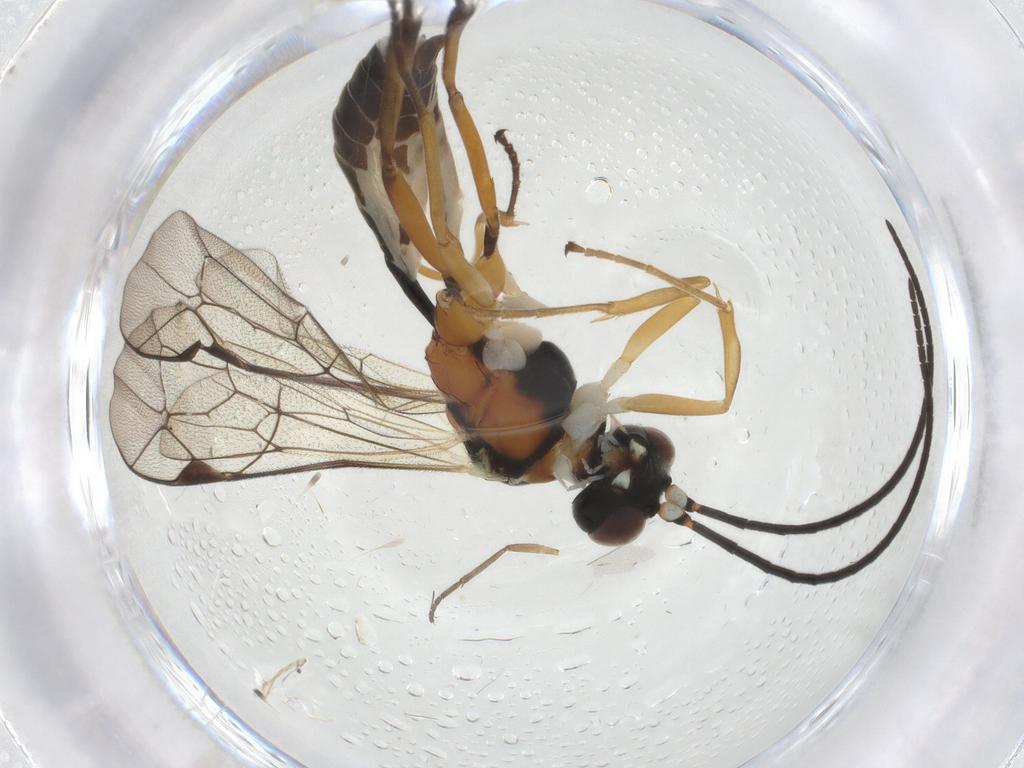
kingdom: Animalia
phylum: Arthropoda
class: Insecta
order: Hymenoptera
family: Ichneumonidae
